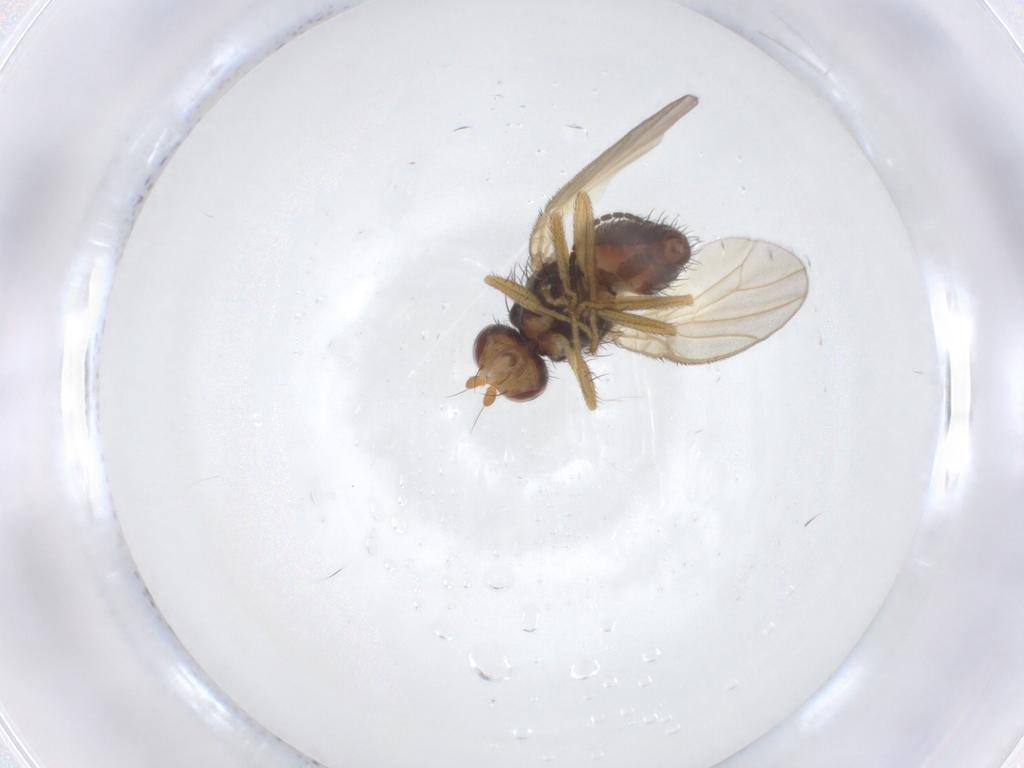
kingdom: Animalia
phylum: Arthropoda
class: Insecta
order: Diptera
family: Heleomyzidae
